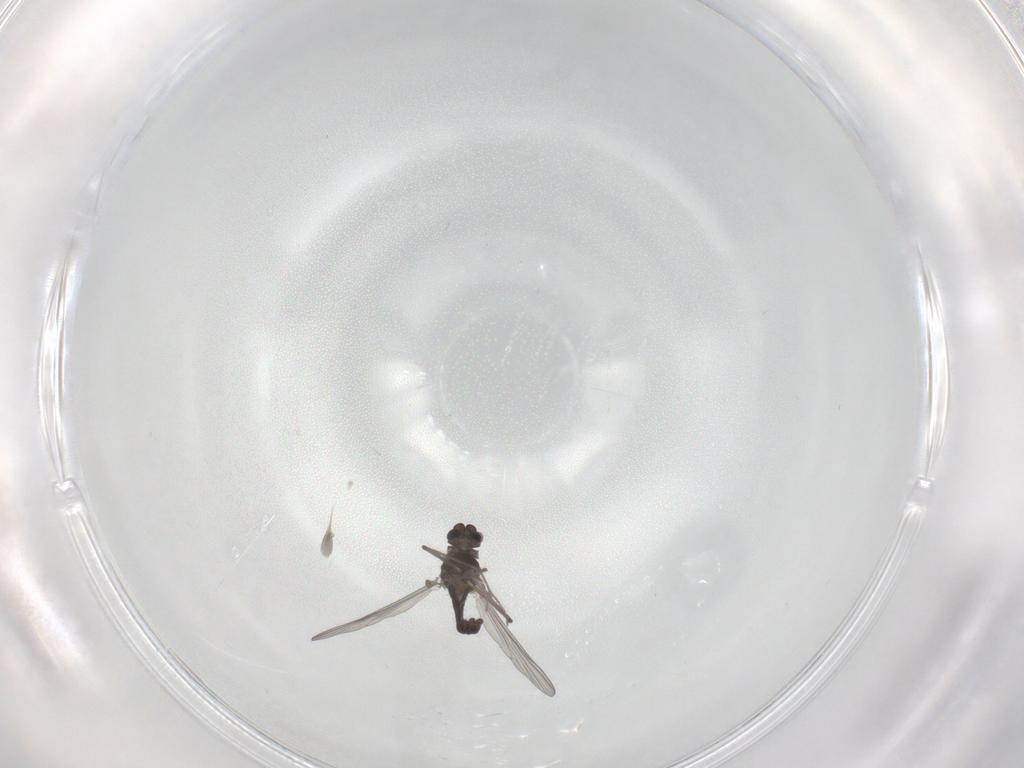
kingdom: Animalia
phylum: Arthropoda
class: Insecta
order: Diptera
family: Chironomidae
